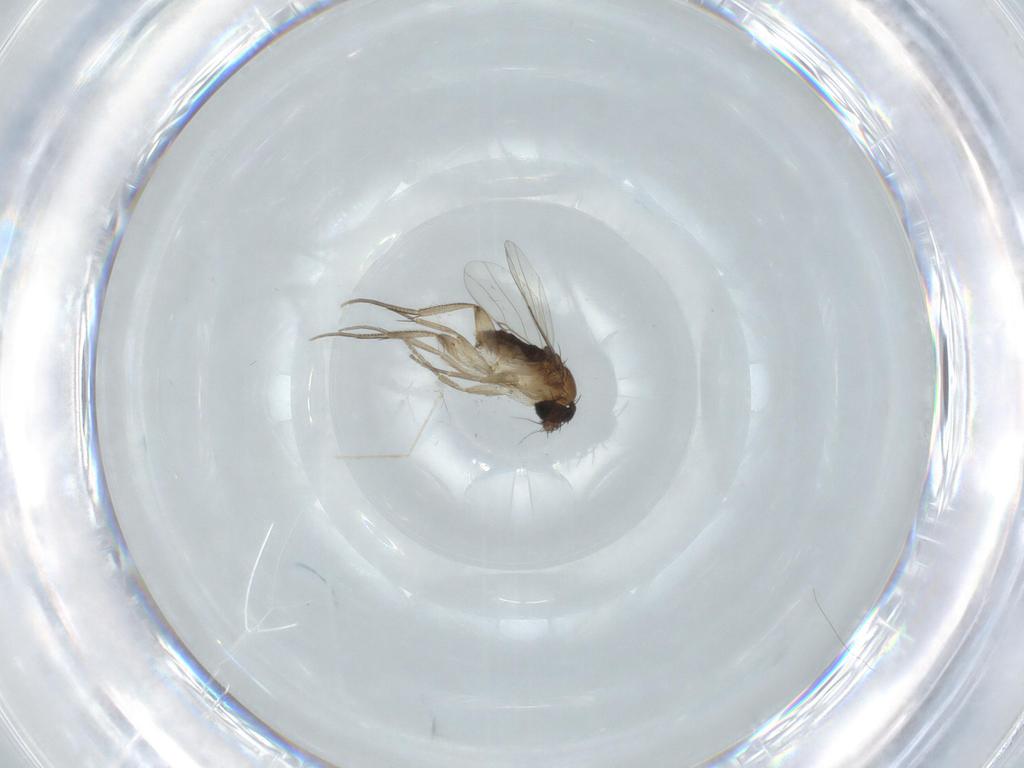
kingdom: Animalia
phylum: Arthropoda
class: Insecta
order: Diptera
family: Phoridae
